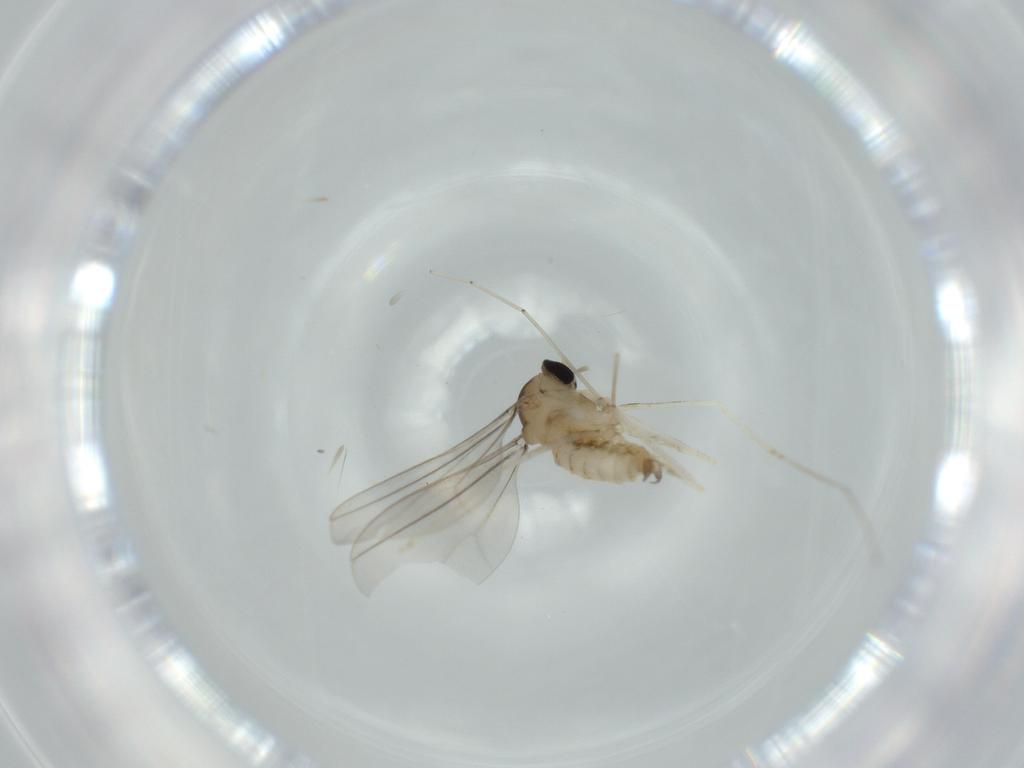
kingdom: Animalia
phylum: Arthropoda
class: Insecta
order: Diptera
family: Cecidomyiidae
